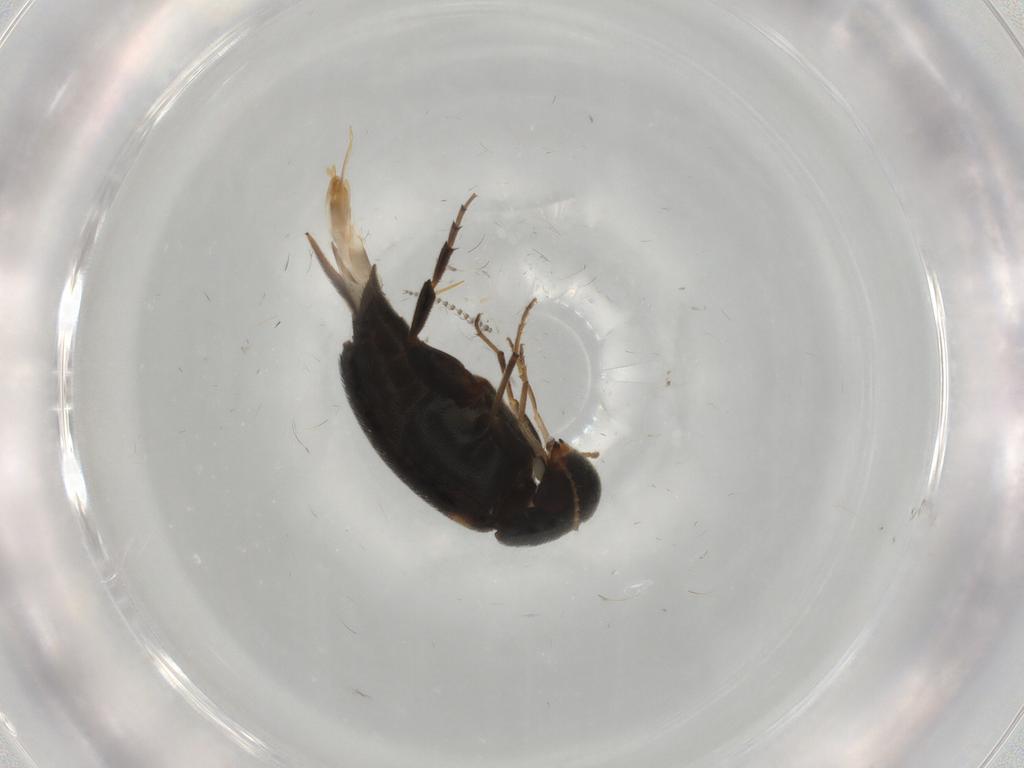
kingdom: Animalia
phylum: Arthropoda
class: Insecta
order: Coleoptera
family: Mordellidae
